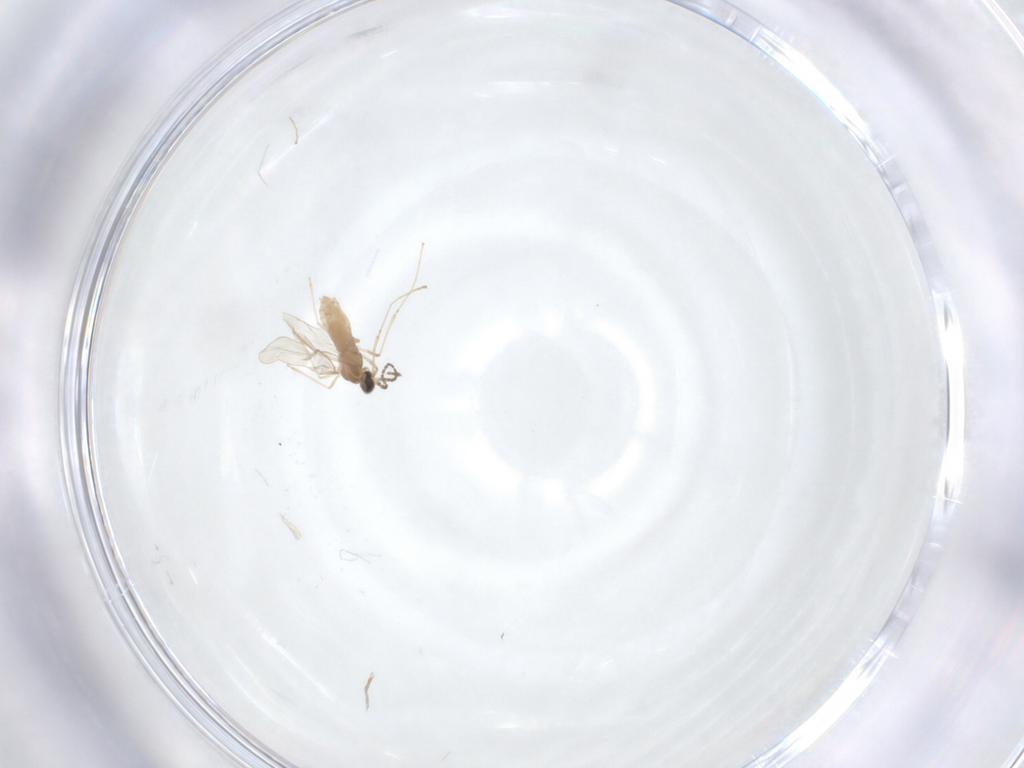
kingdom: Animalia
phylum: Arthropoda
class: Insecta
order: Diptera
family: Cecidomyiidae
